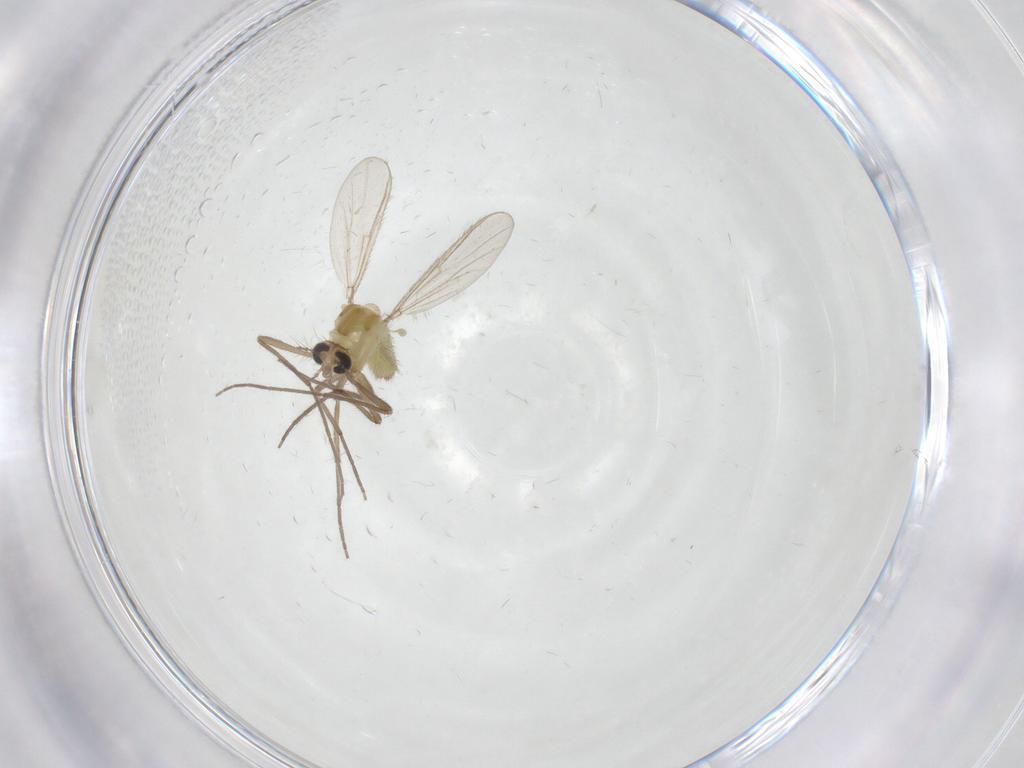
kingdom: Animalia
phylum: Arthropoda
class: Insecta
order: Diptera
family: Chironomidae
